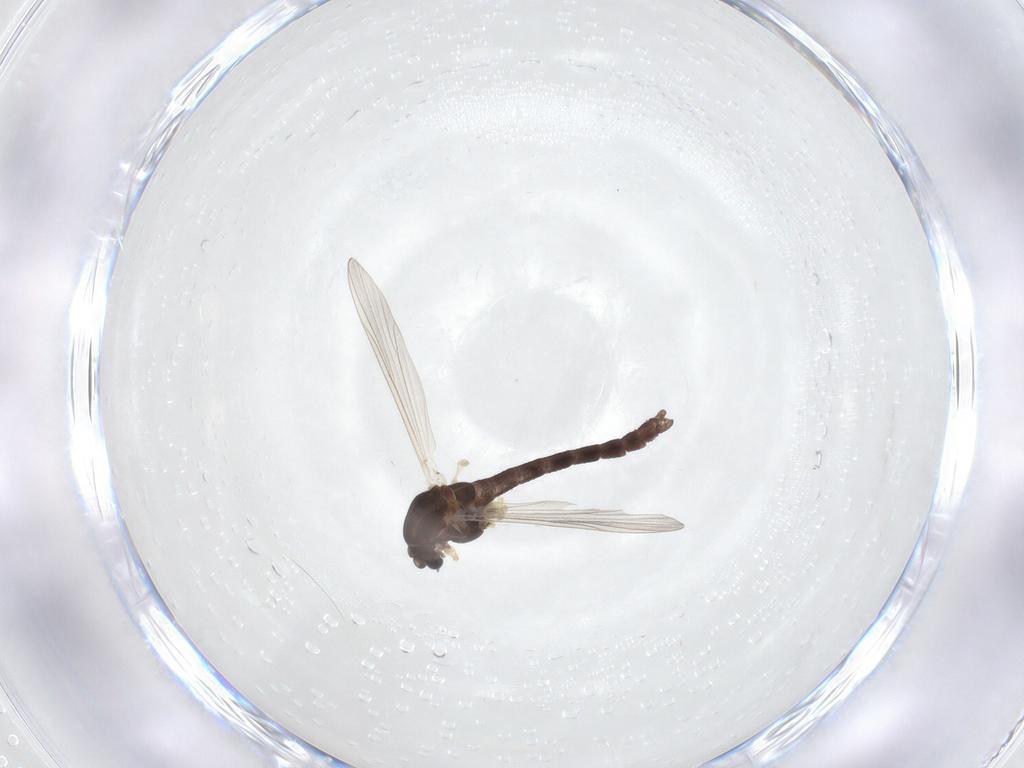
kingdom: Animalia
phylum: Arthropoda
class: Insecta
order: Diptera
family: Chironomidae
